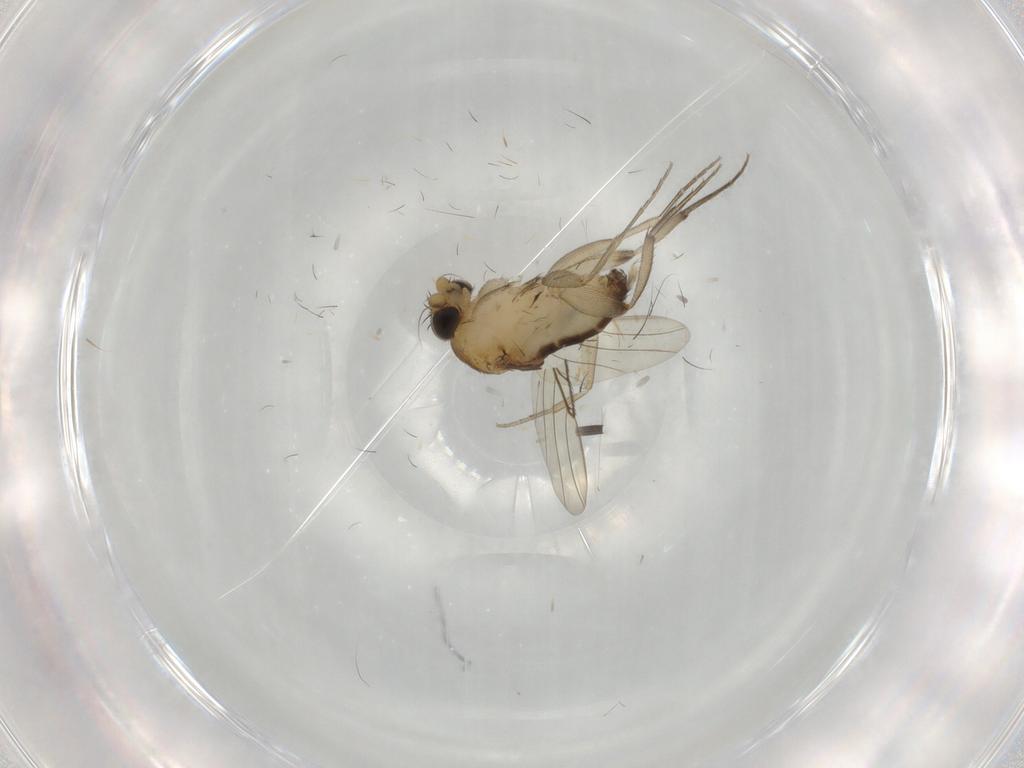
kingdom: Animalia
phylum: Arthropoda
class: Insecta
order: Diptera
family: Phoridae
